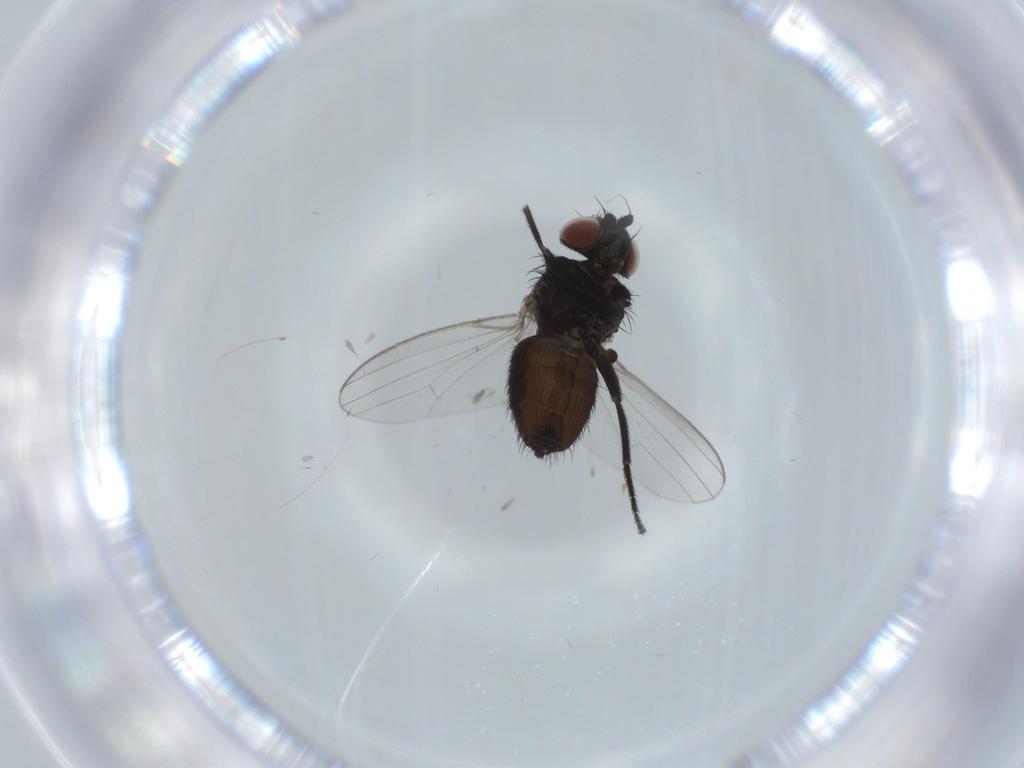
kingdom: Animalia
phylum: Arthropoda
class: Insecta
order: Diptera
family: Milichiidae
